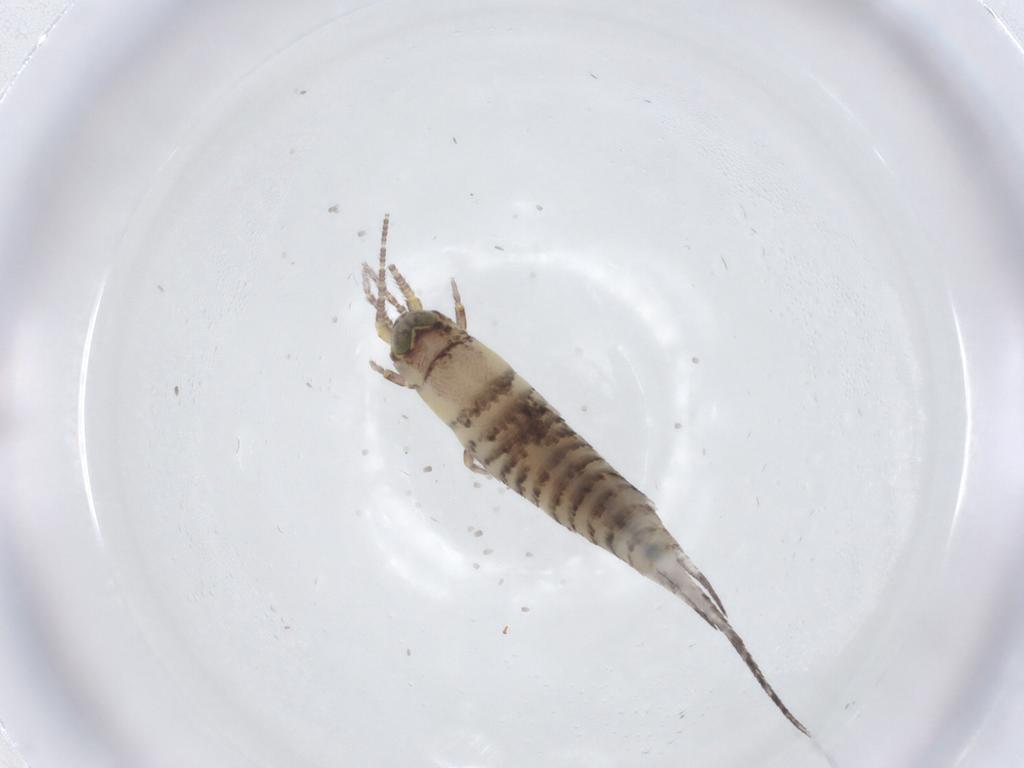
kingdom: Animalia
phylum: Arthropoda
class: Insecta
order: Archaeognatha
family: Machilidae
